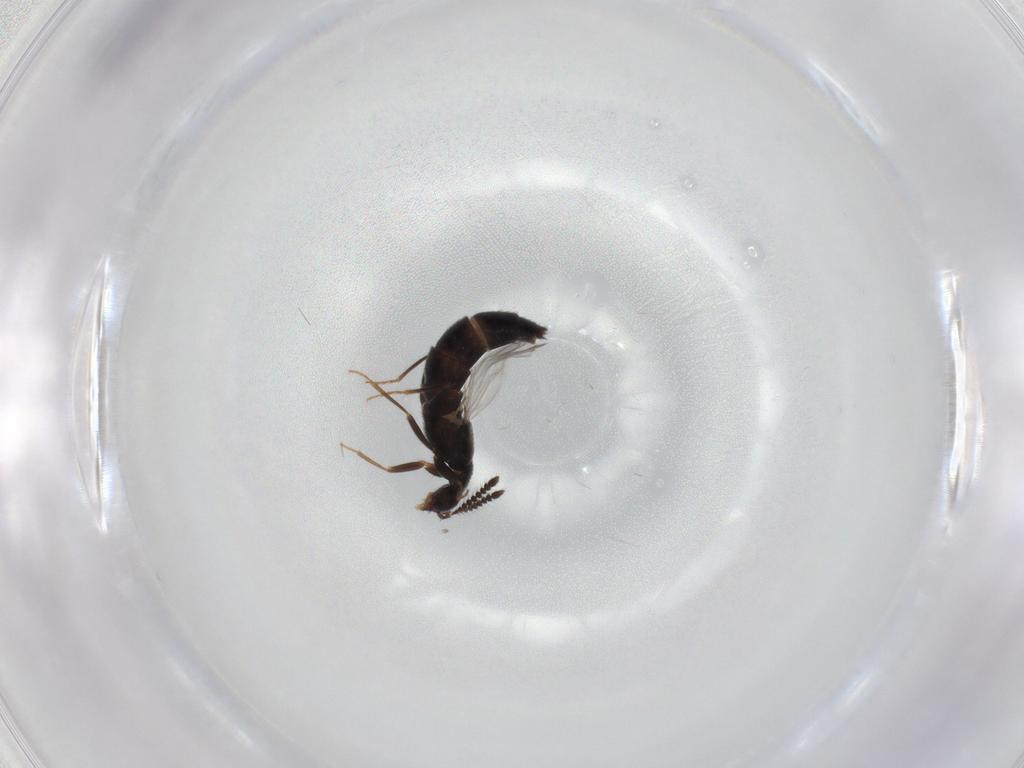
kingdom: Animalia
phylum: Arthropoda
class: Insecta
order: Coleoptera
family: Staphylinidae
